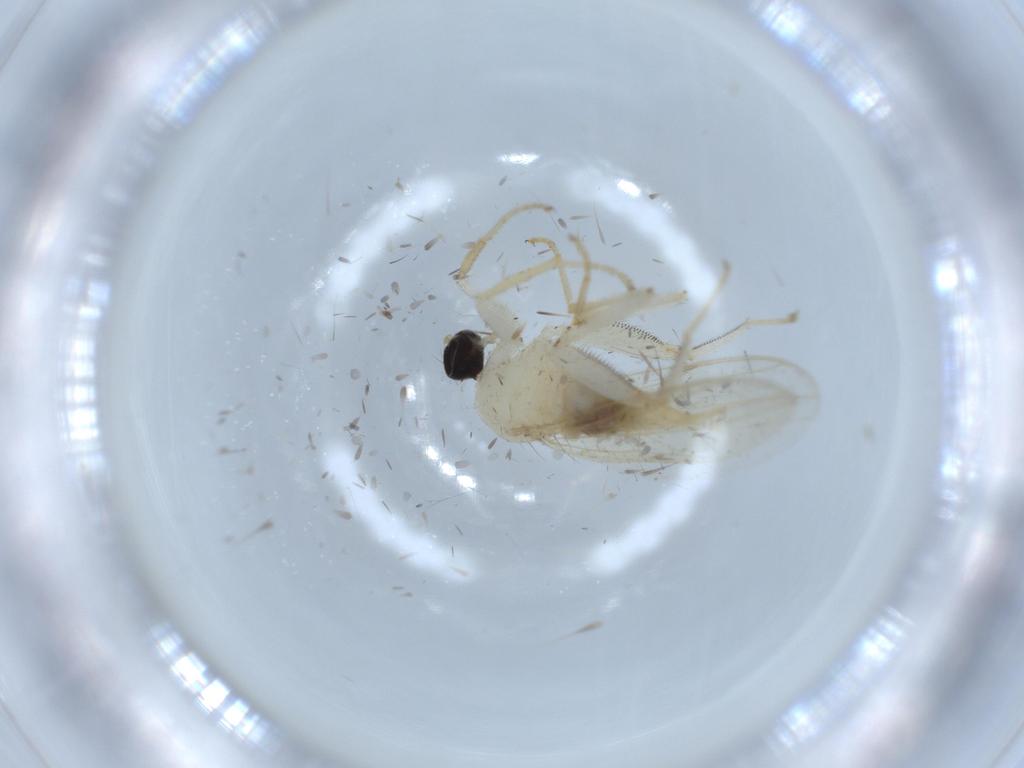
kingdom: Animalia
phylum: Arthropoda
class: Insecta
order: Diptera
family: Hybotidae
